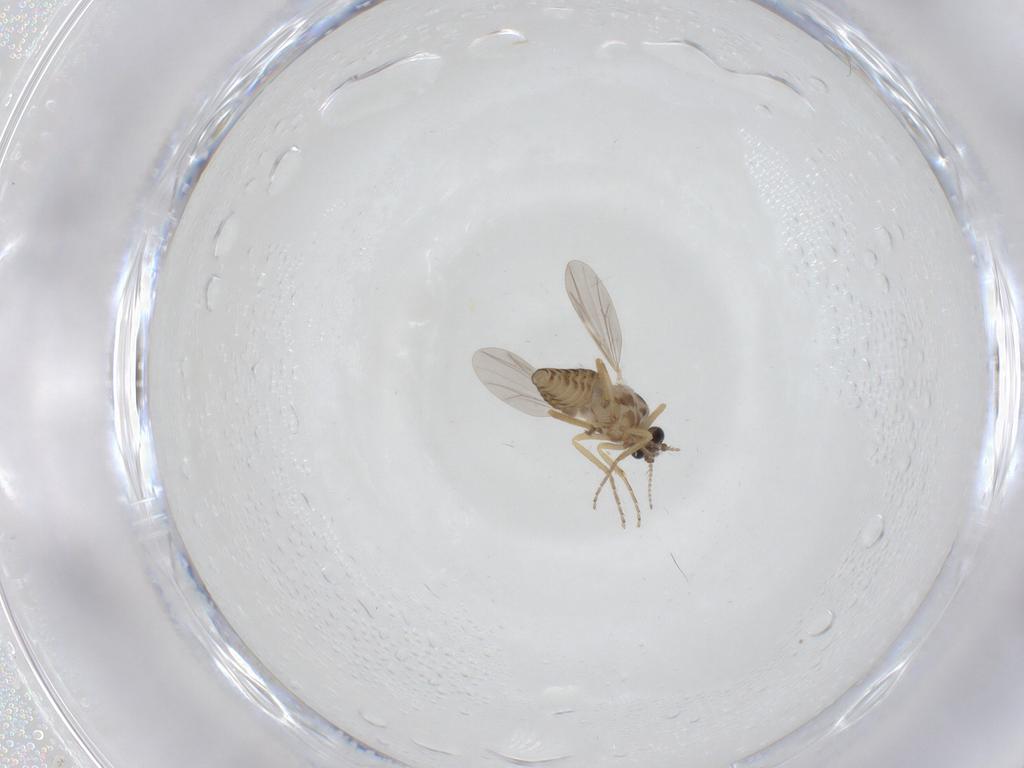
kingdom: Animalia
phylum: Arthropoda
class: Insecta
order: Diptera
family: Ceratopogonidae
